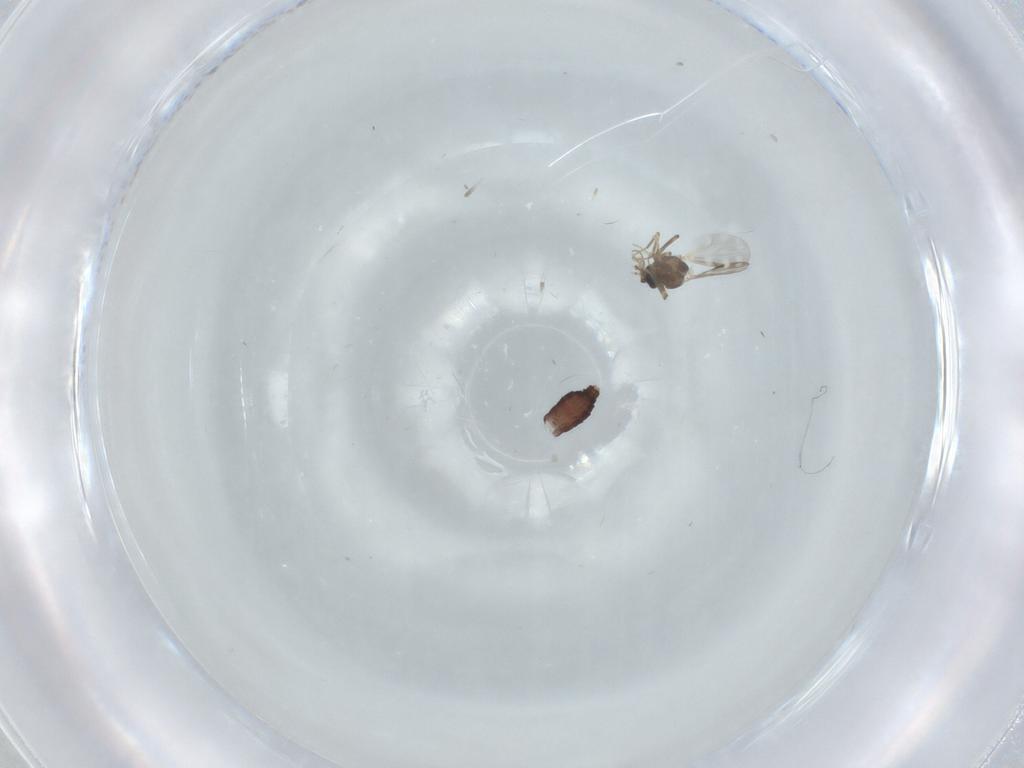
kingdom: Animalia
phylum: Arthropoda
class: Insecta
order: Diptera
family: Ceratopogonidae
